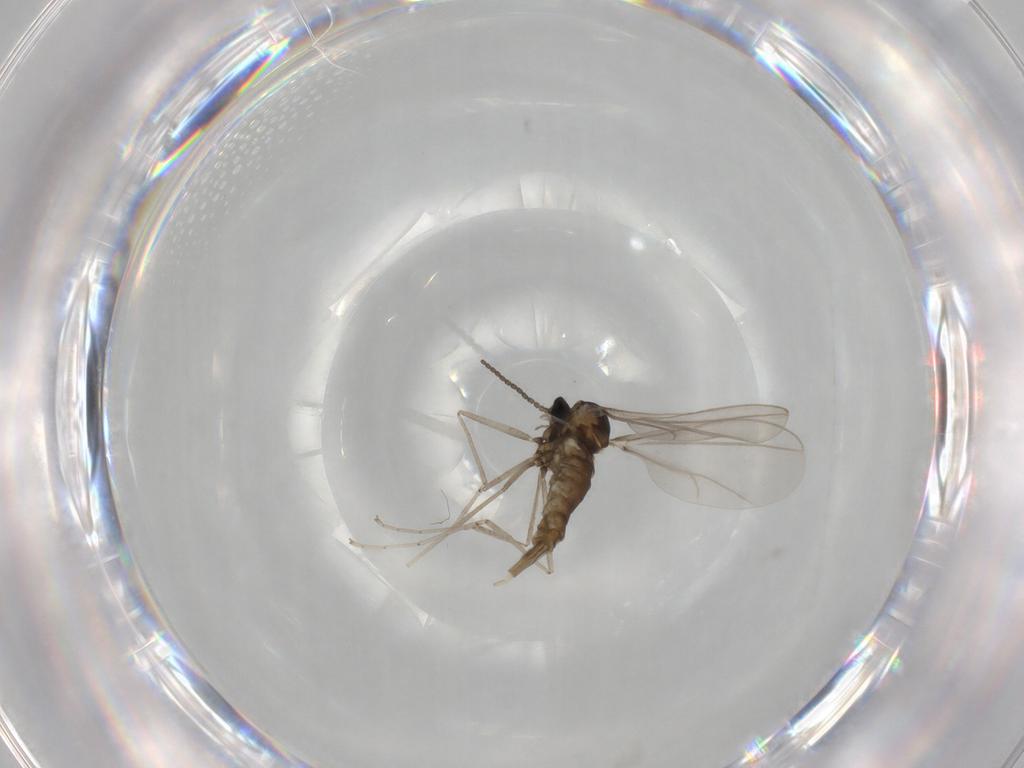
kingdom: Animalia
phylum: Arthropoda
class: Insecta
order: Diptera
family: Cecidomyiidae
